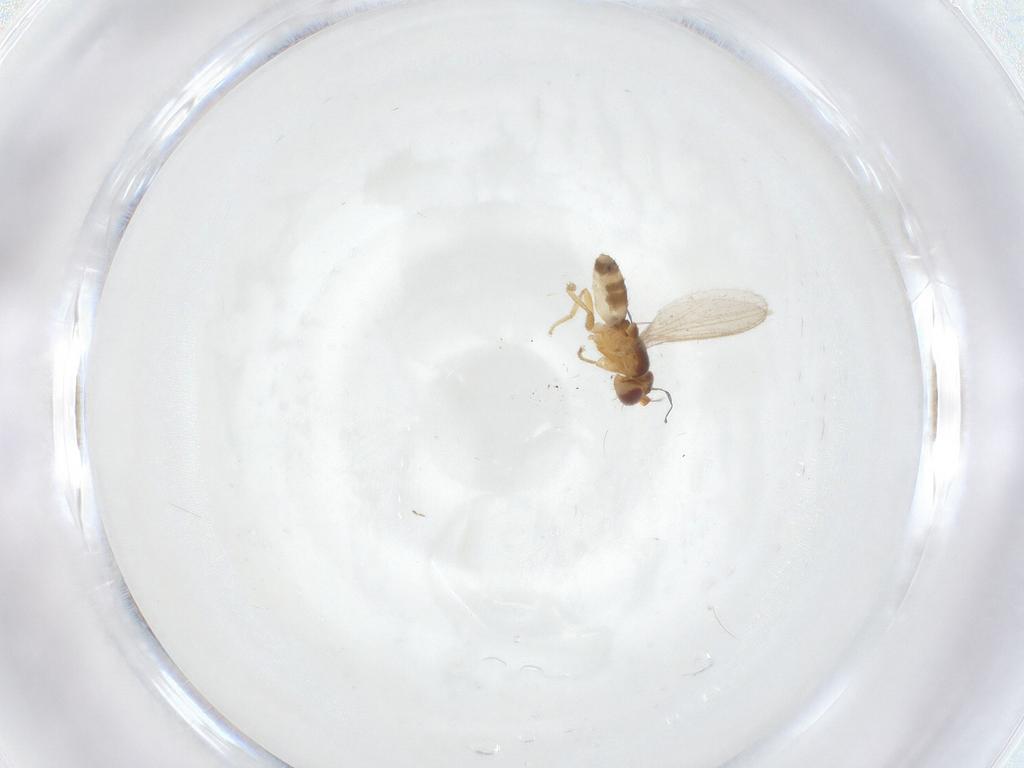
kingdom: Animalia
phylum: Arthropoda
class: Insecta
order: Diptera
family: Periscelididae
